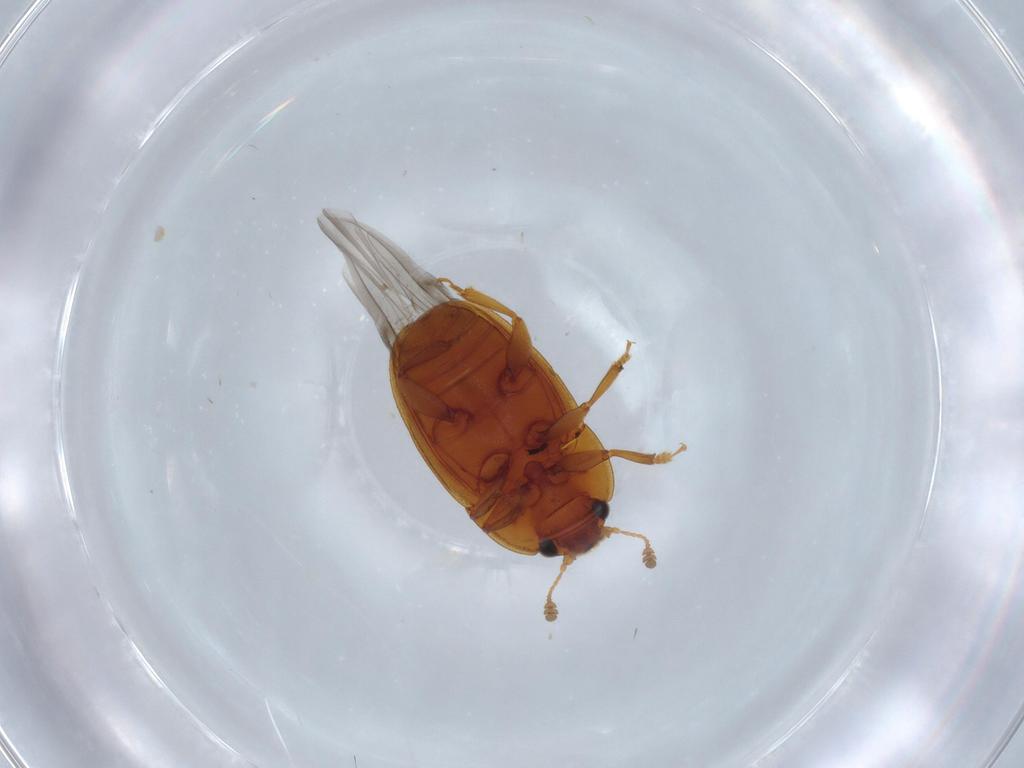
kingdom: Animalia
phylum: Arthropoda
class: Insecta
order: Coleoptera
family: Nitidulidae
